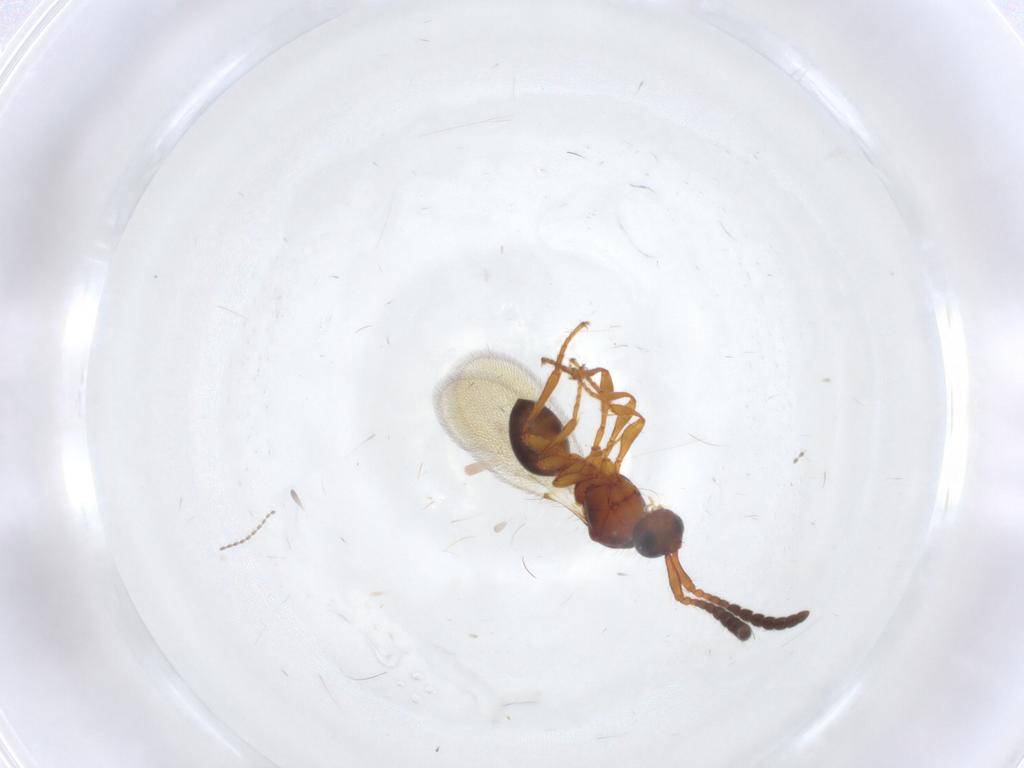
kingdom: Animalia
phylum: Arthropoda
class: Insecta
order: Hymenoptera
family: Diapriidae
